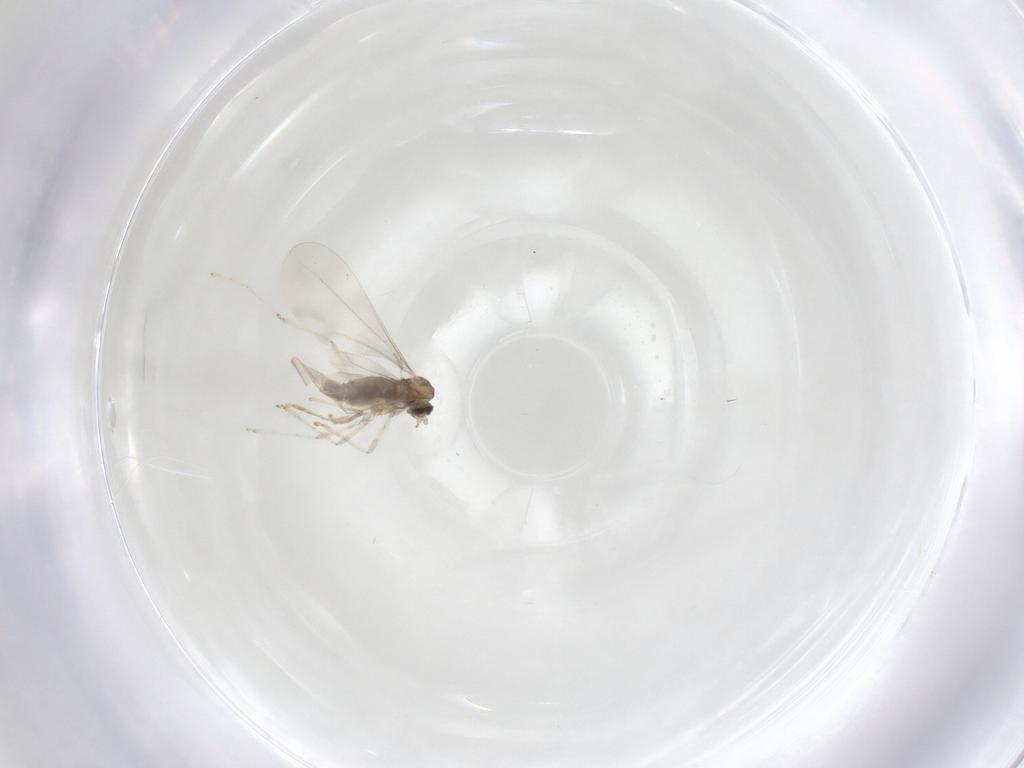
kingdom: Animalia
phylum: Arthropoda
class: Insecta
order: Diptera
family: Cecidomyiidae
